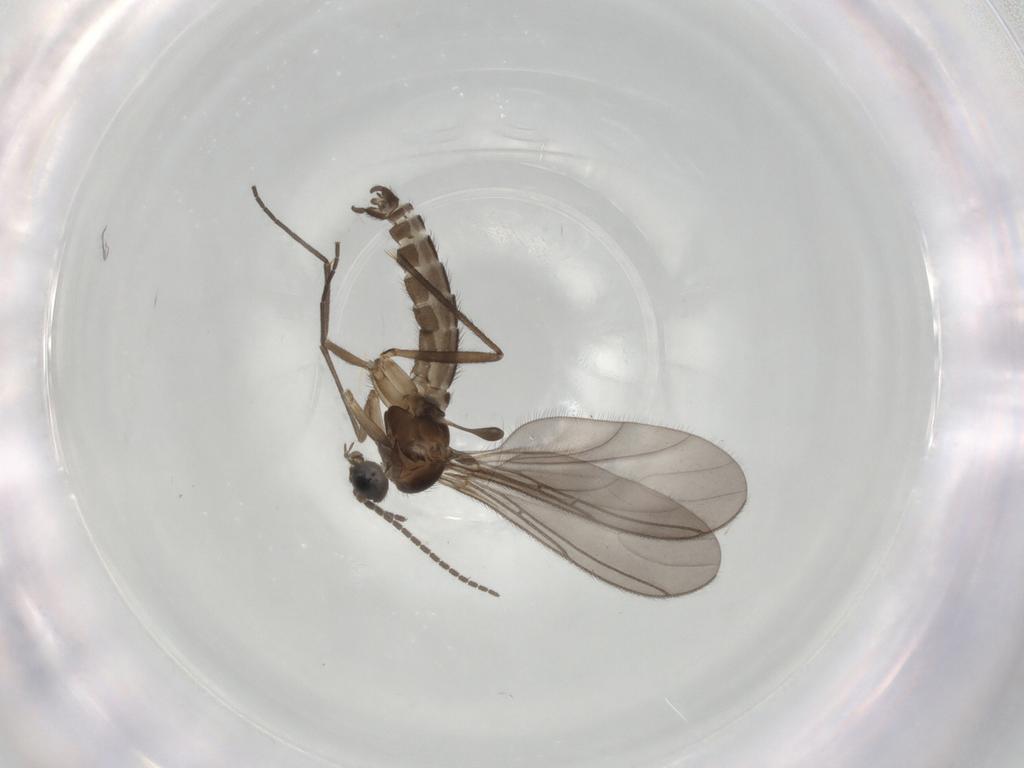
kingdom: Animalia
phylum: Arthropoda
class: Insecta
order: Diptera
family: Sciaridae
